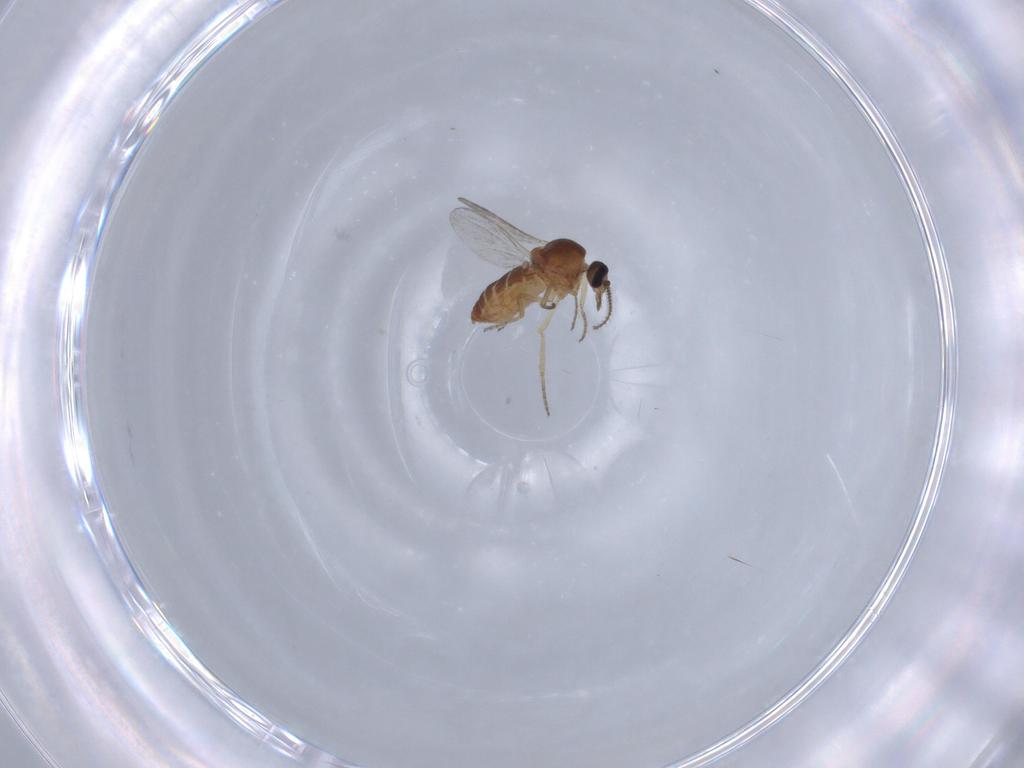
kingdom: Animalia
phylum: Arthropoda
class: Insecta
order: Diptera
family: Ceratopogonidae
